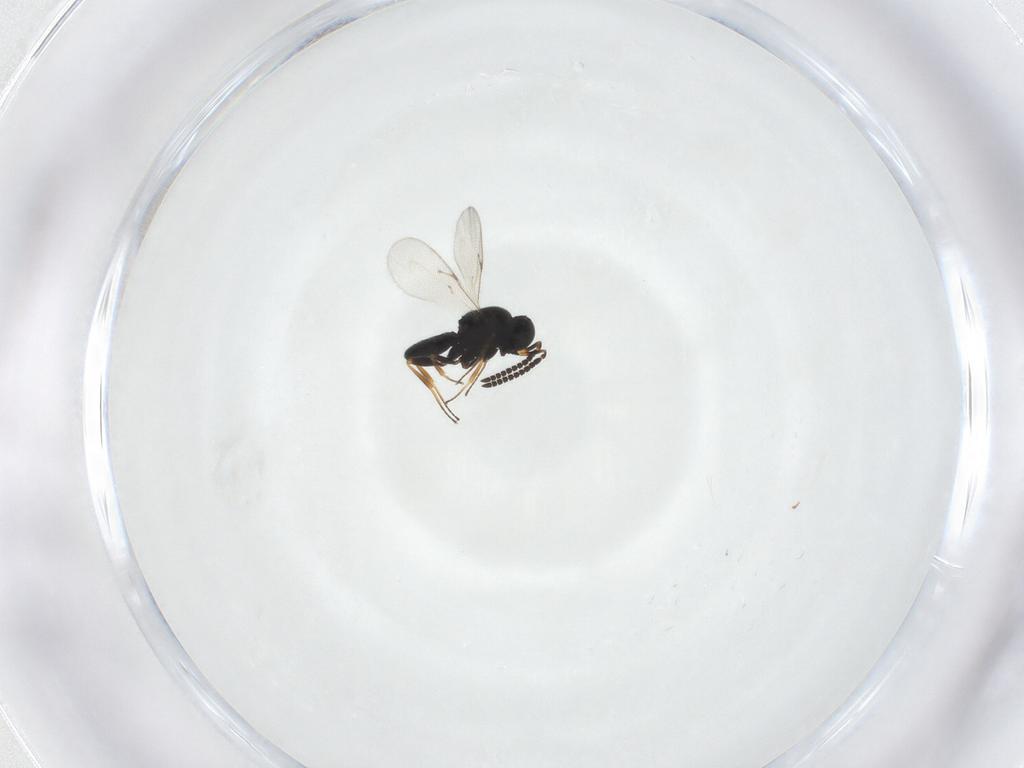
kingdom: Animalia
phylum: Arthropoda
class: Insecta
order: Hymenoptera
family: Scelionidae
